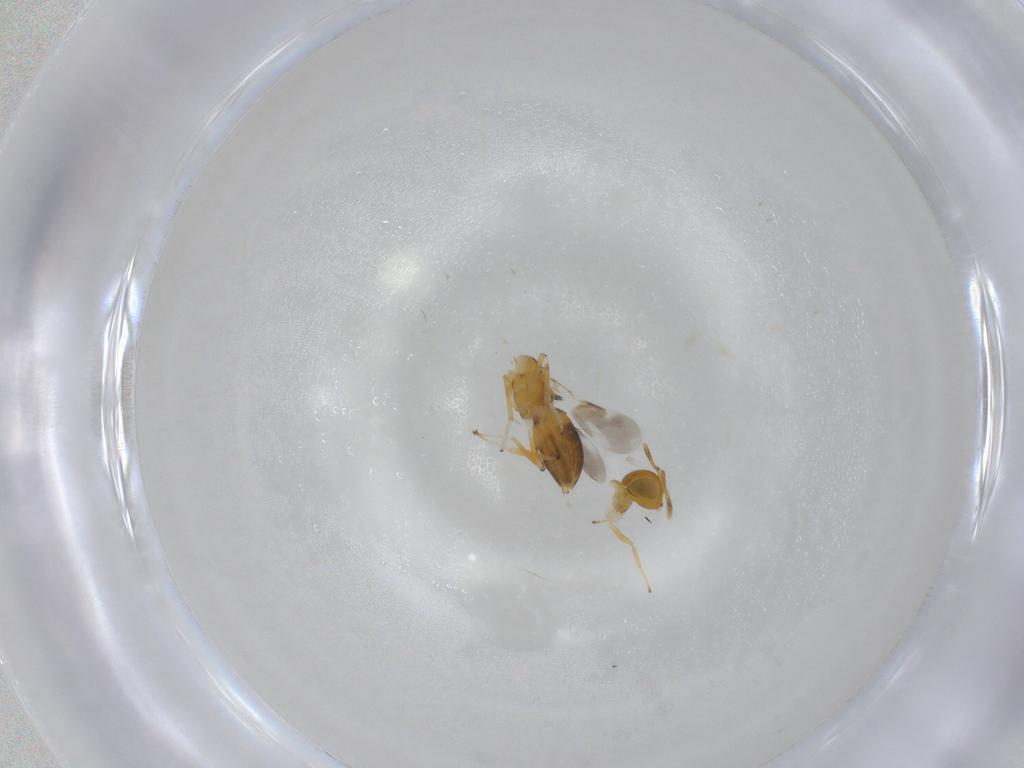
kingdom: Animalia
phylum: Arthropoda
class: Insecta
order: Hymenoptera
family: Encyrtidae
